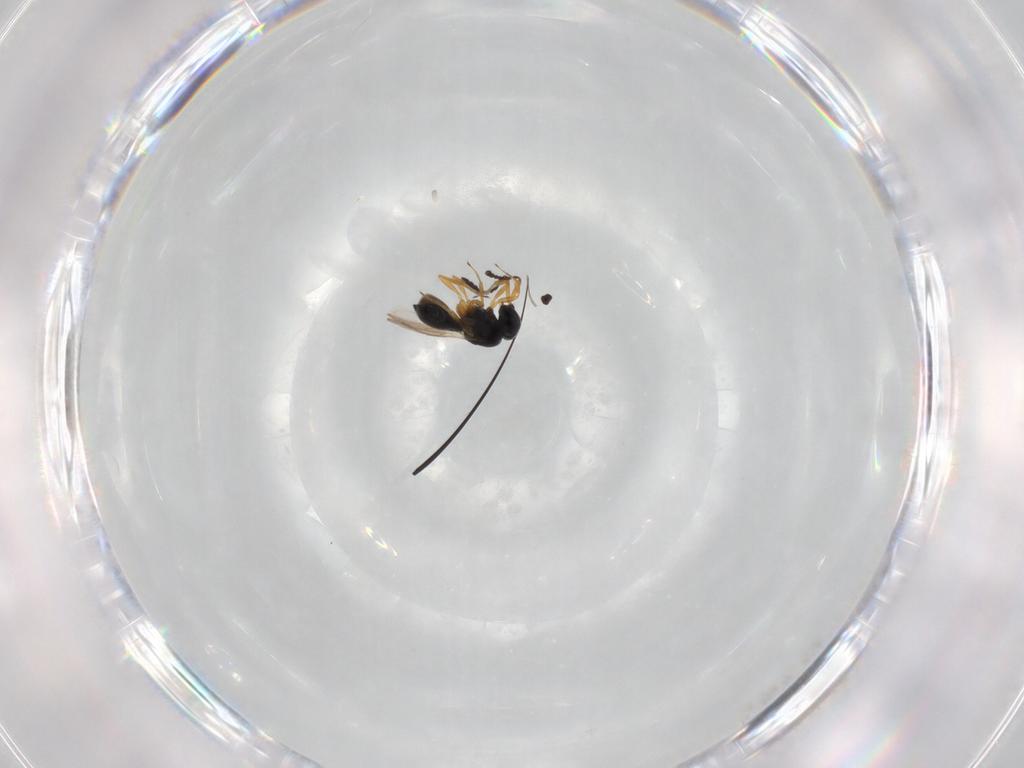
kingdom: Animalia
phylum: Arthropoda
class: Insecta
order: Hymenoptera
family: Scelionidae
